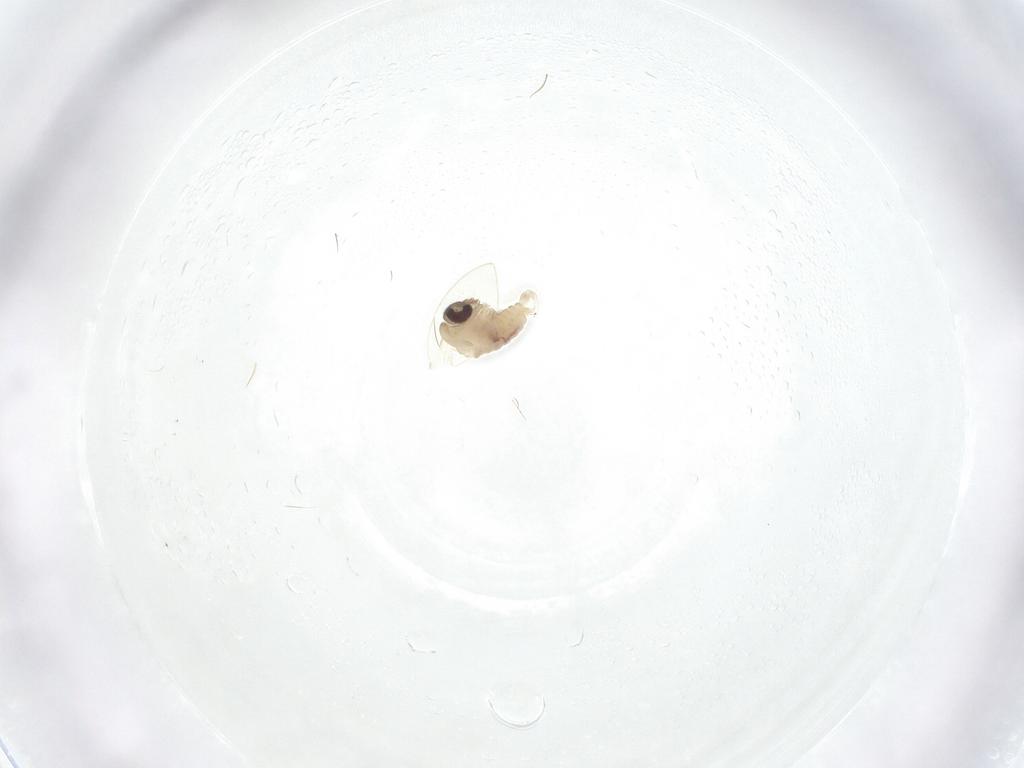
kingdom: Animalia
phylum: Arthropoda
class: Insecta
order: Diptera
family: Psychodidae
